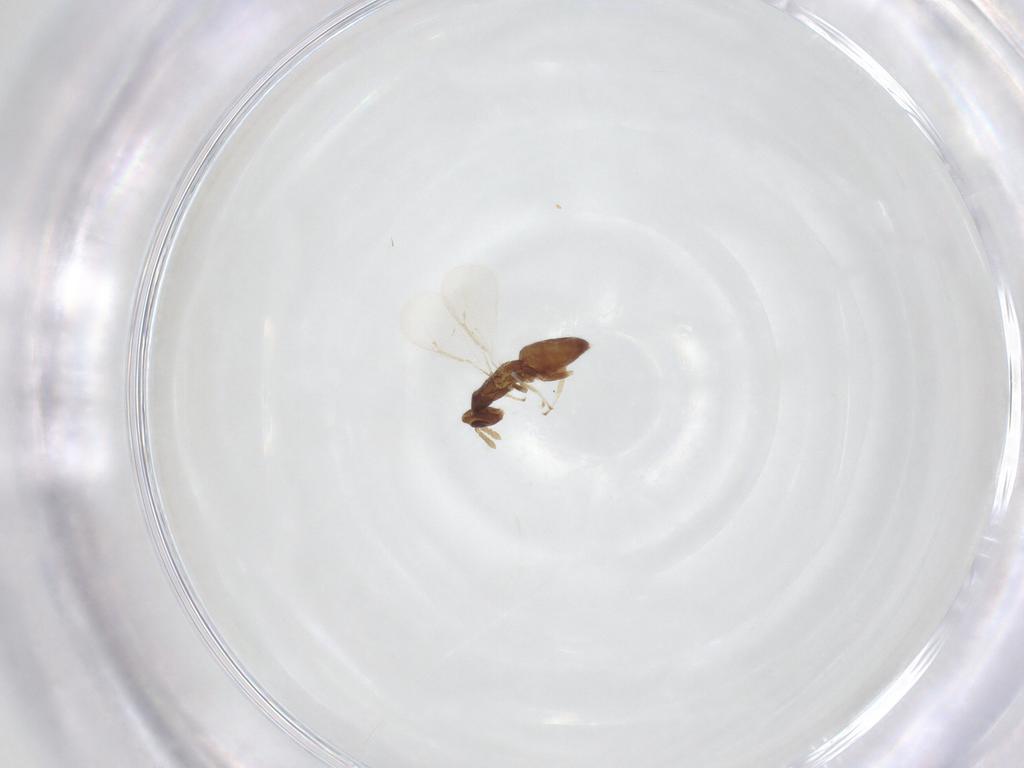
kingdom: Animalia
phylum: Arthropoda
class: Insecta
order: Hymenoptera
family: Eulophidae
